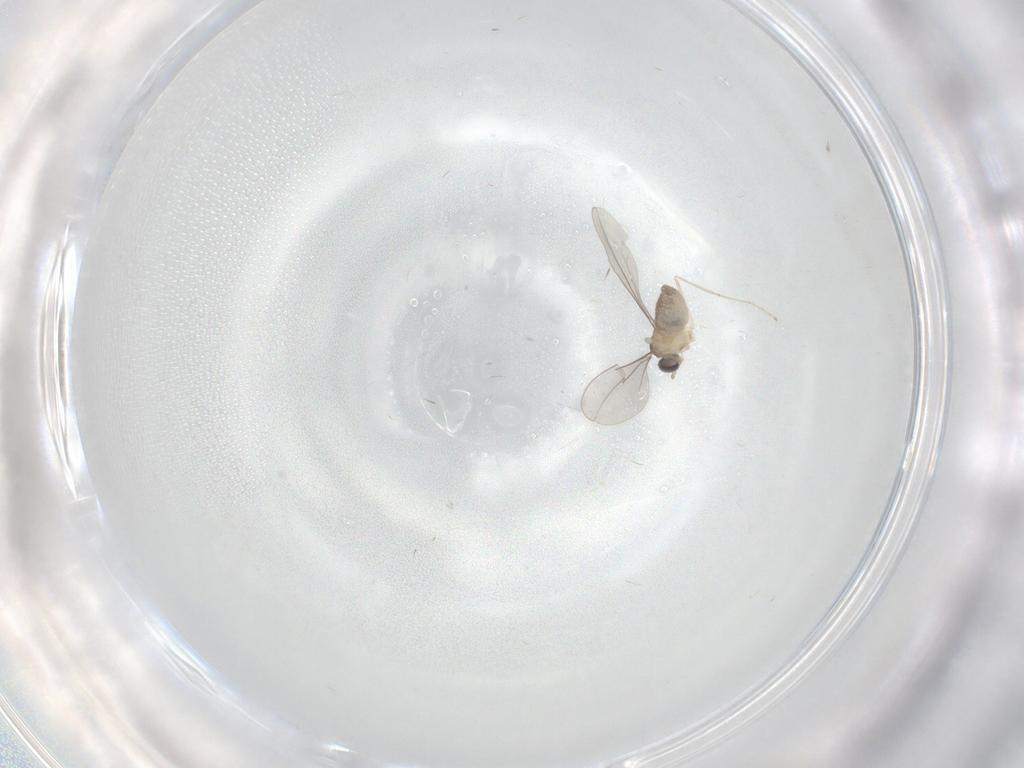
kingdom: Animalia
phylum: Arthropoda
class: Insecta
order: Diptera
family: Cecidomyiidae
